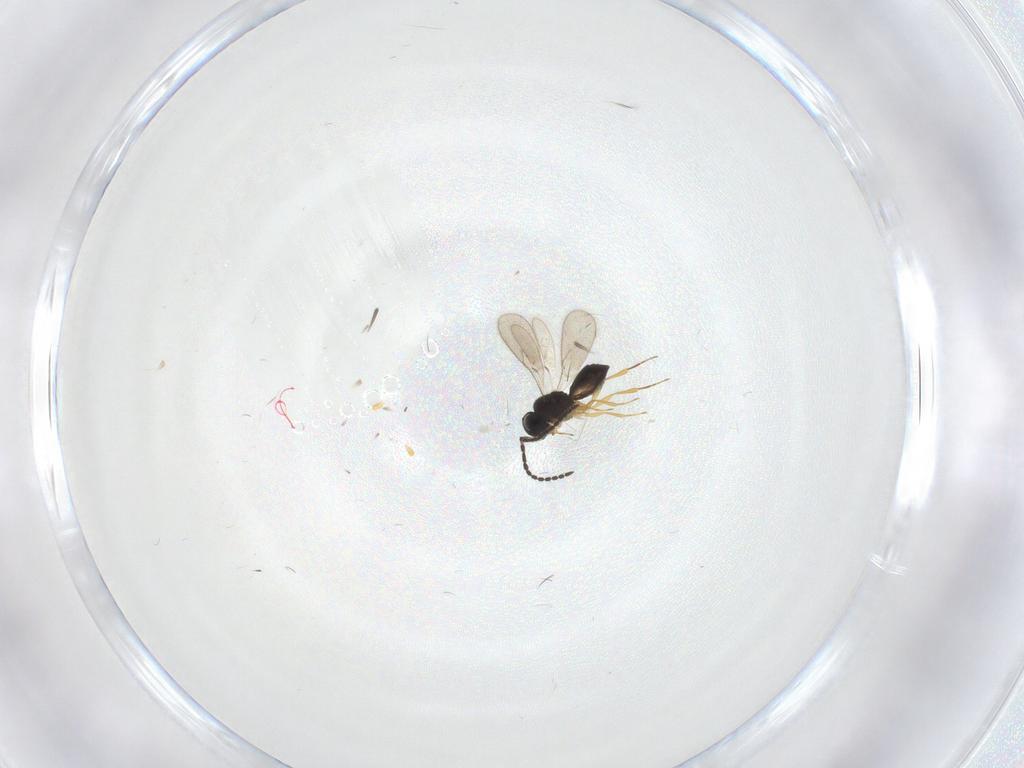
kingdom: Animalia
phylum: Arthropoda
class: Insecta
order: Hymenoptera
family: Scelionidae
